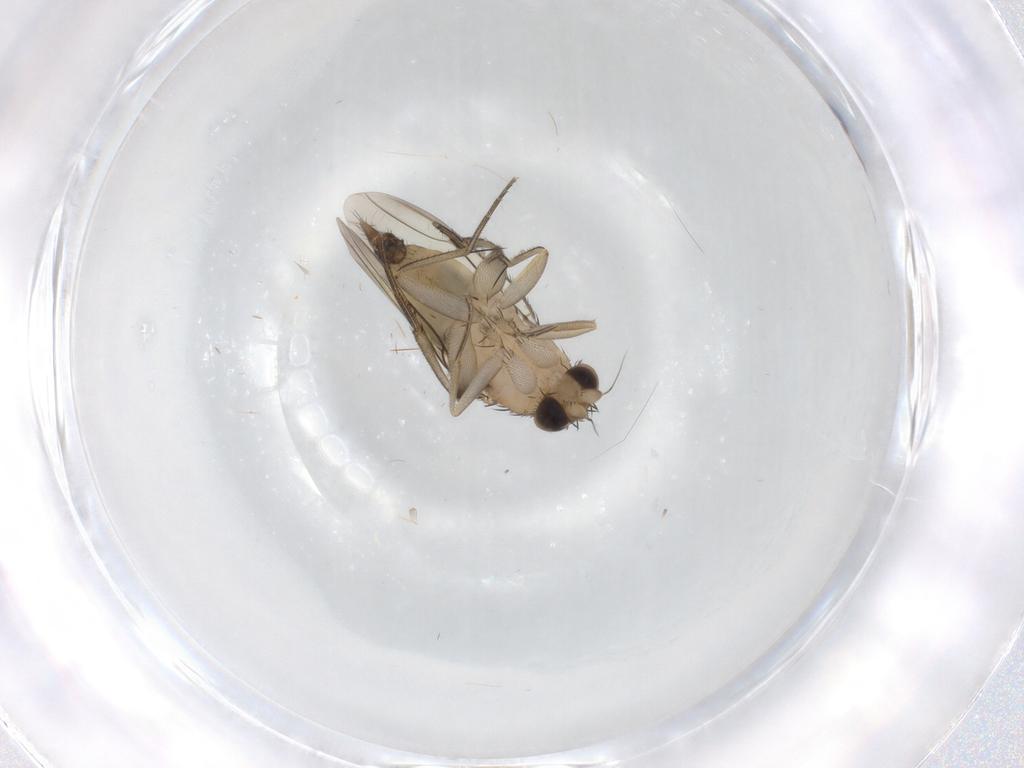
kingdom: Animalia
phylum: Arthropoda
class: Insecta
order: Diptera
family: Phoridae
